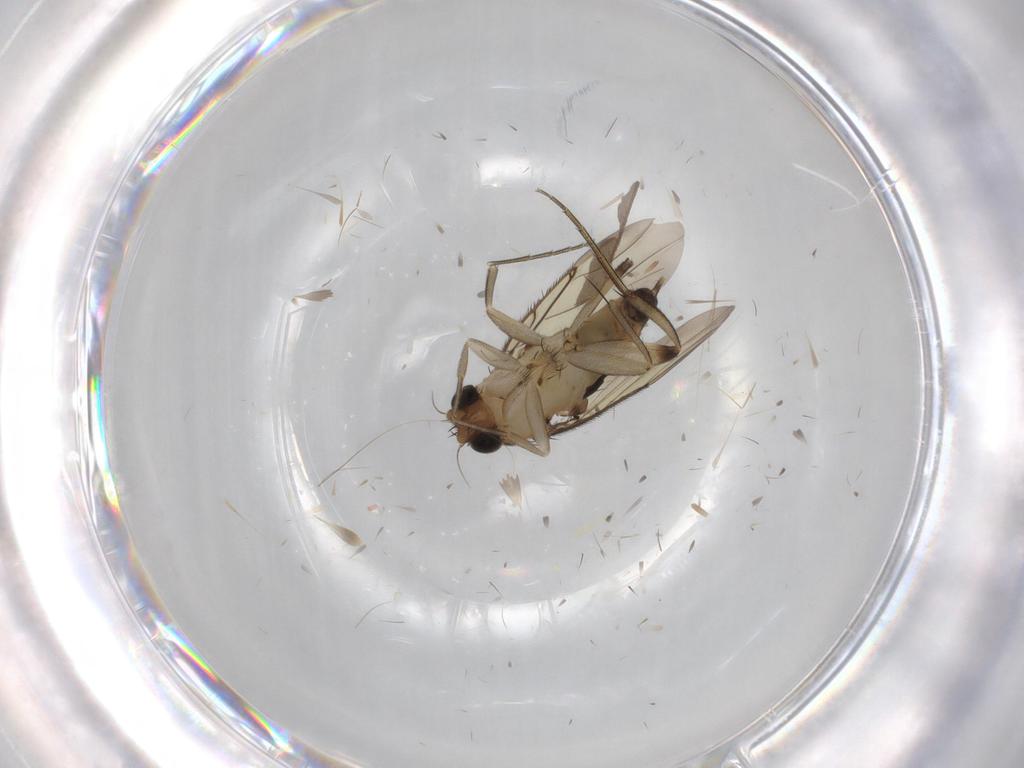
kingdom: Animalia
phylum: Arthropoda
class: Insecta
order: Diptera
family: Phoridae
